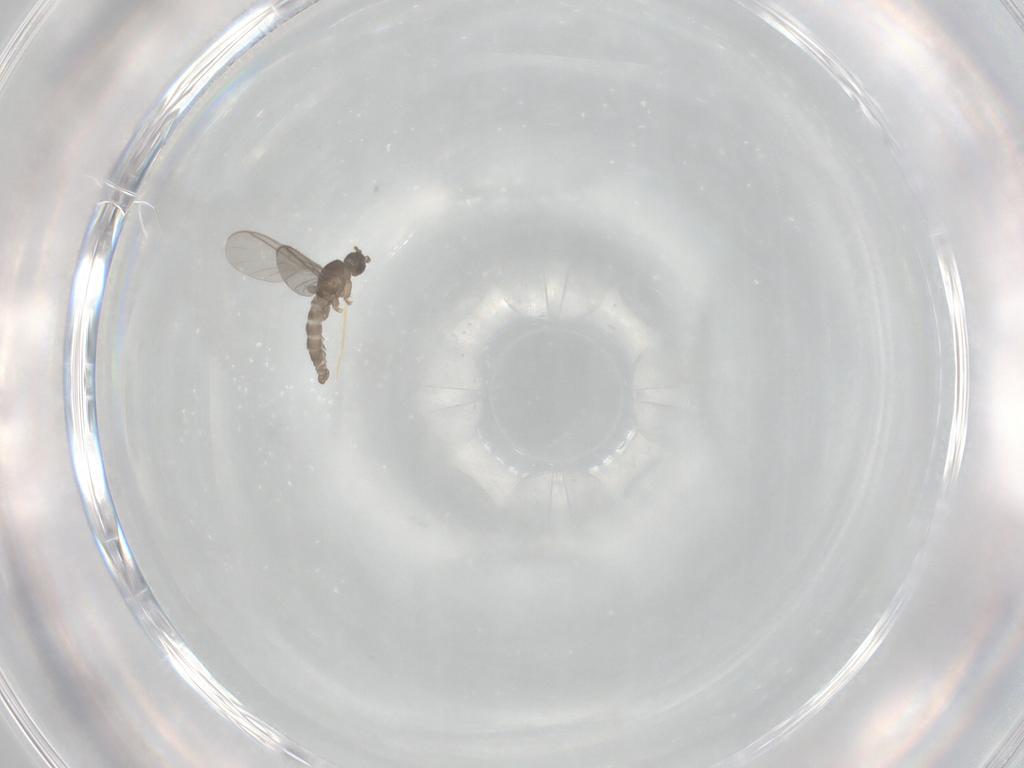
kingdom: Animalia
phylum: Arthropoda
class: Insecta
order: Diptera
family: Sciaridae
